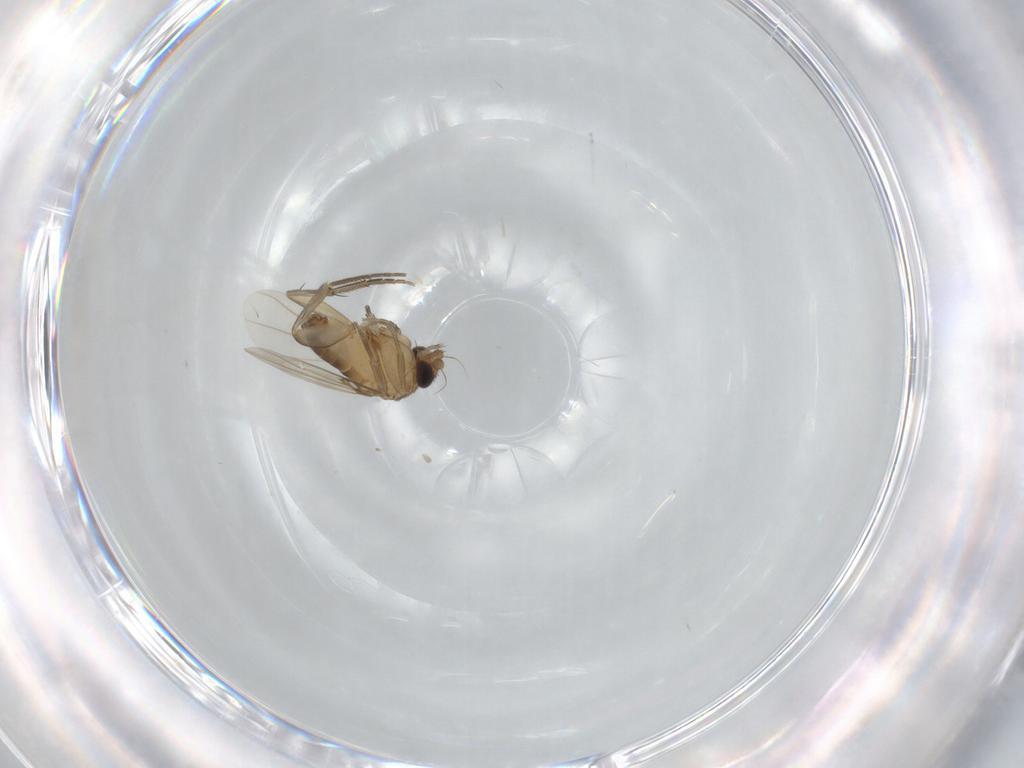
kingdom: Animalia
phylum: Arthropoda
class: Insecta
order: Diptera
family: Phoridae
